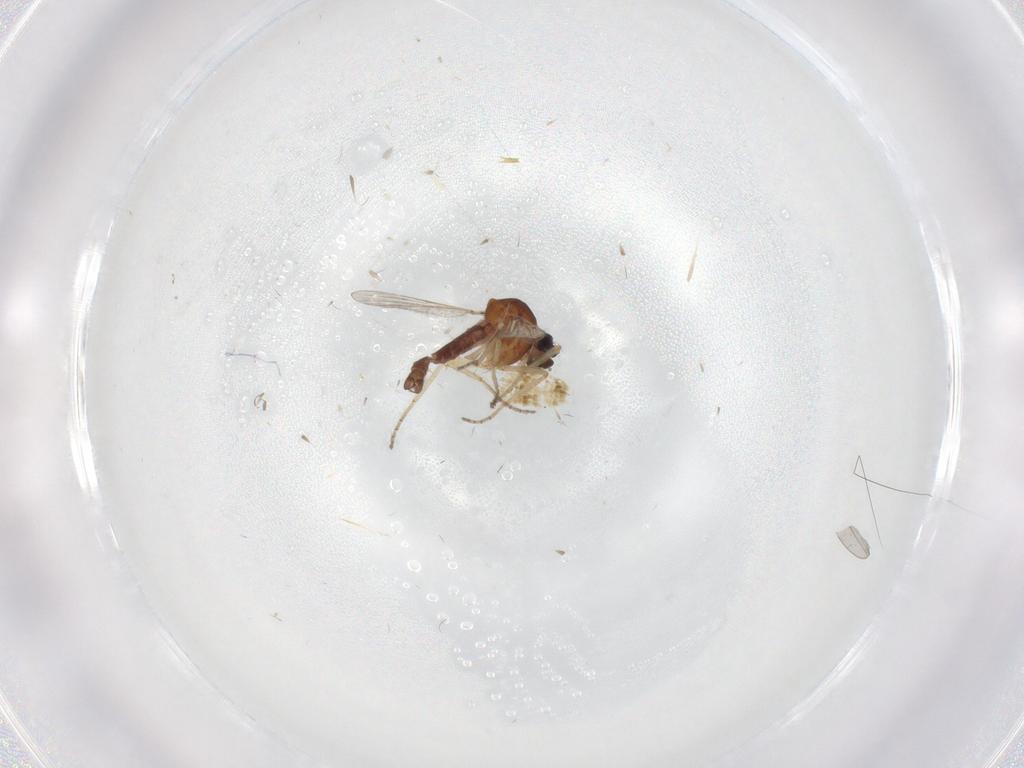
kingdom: Animalia
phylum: Arthropoda
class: Insecta
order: Diptera
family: Ceratopogonidae
